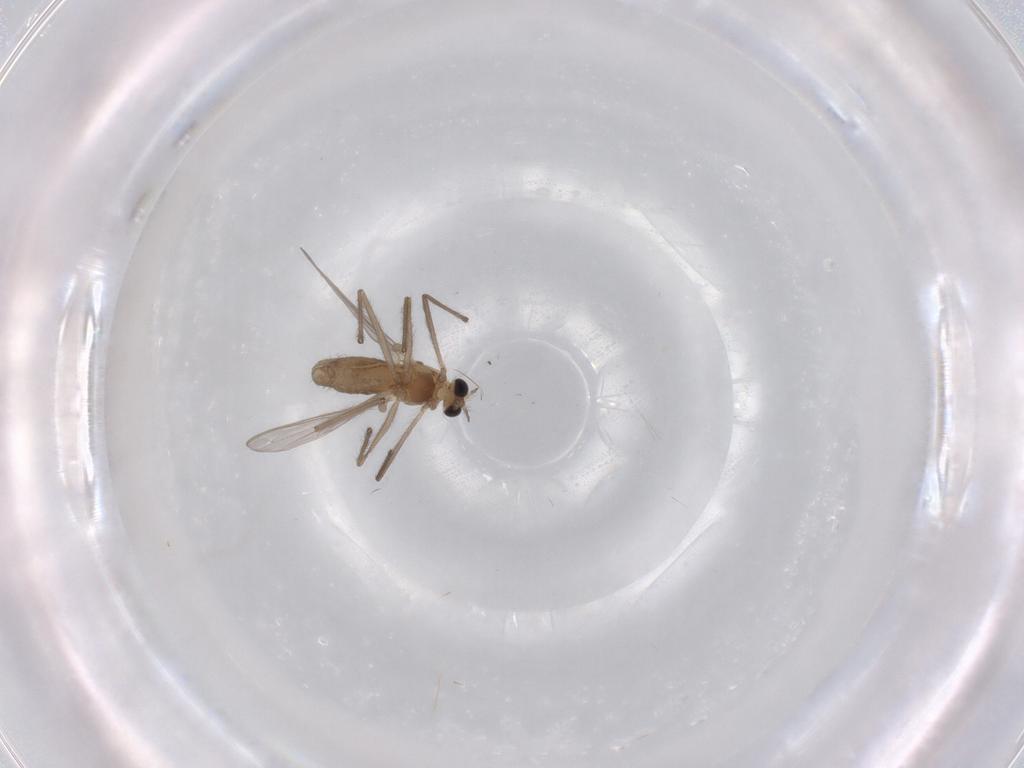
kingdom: Animalia
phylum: Arthropoda
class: Insecta
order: Diptera
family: Chironomidae
